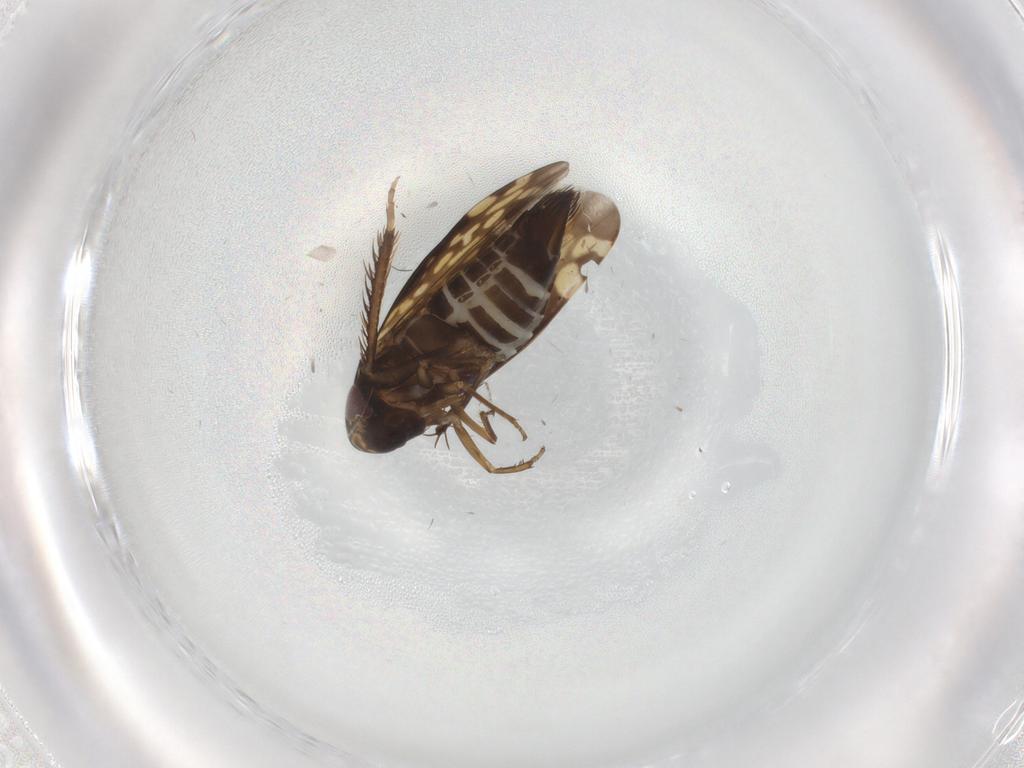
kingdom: Animalia
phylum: Arthropoda
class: Insecta
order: Hemiptera
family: Cicadellidae
